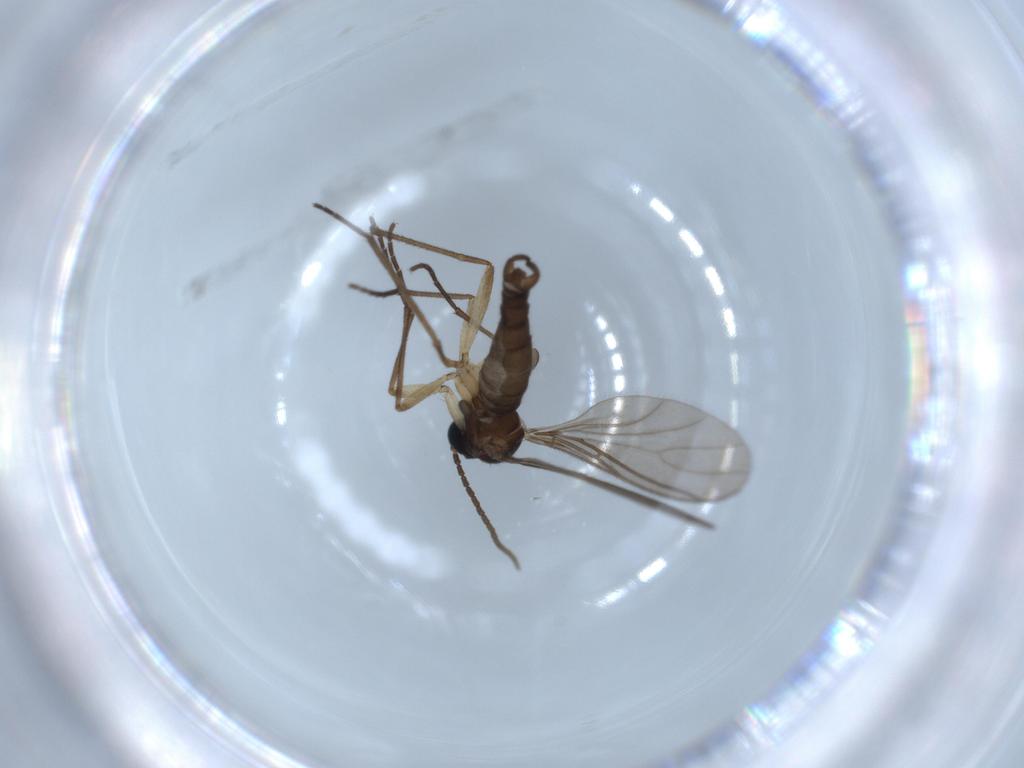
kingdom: Animalia
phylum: Arthropoda
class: Insecta
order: Diptera
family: Sciaridae
